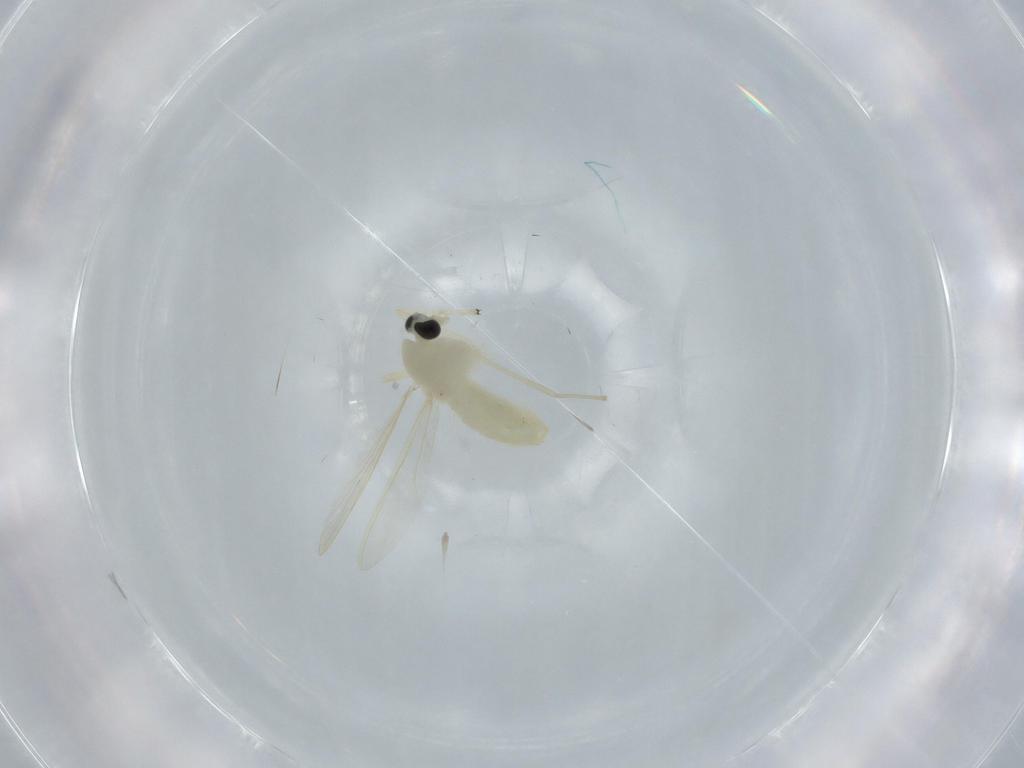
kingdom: Animalia
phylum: Arthropoda
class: Insecta
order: Diptera
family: Chironomidae
